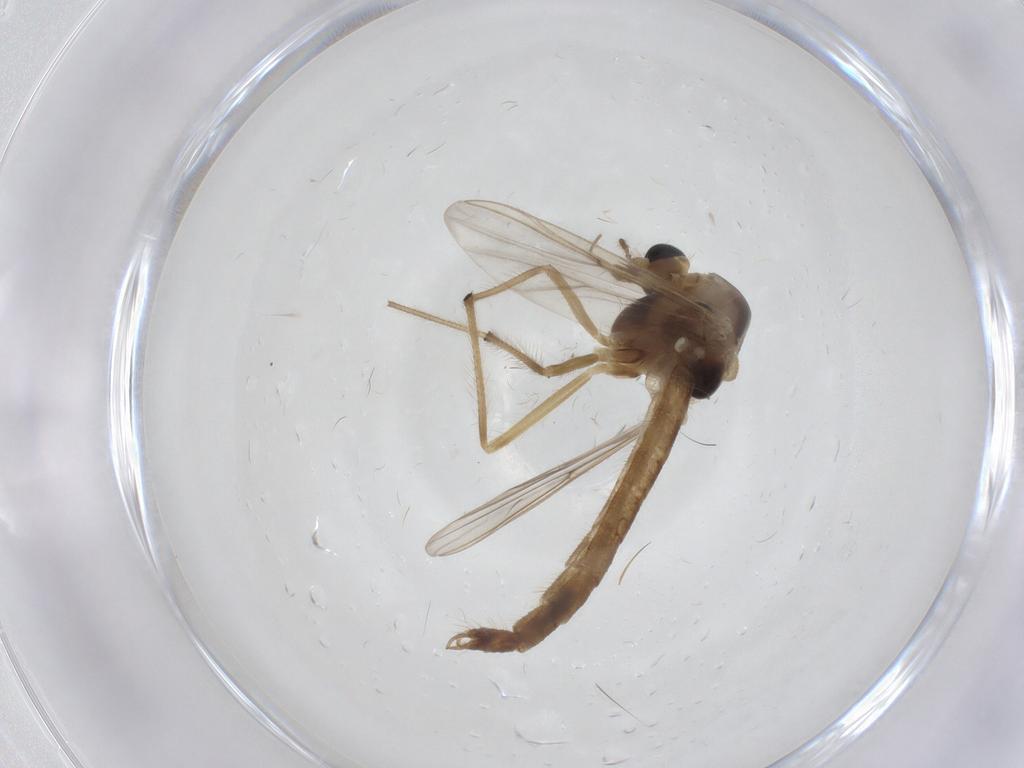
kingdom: Animalia
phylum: Arthropoda
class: Insecta
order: Diptera
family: Chironomidae
